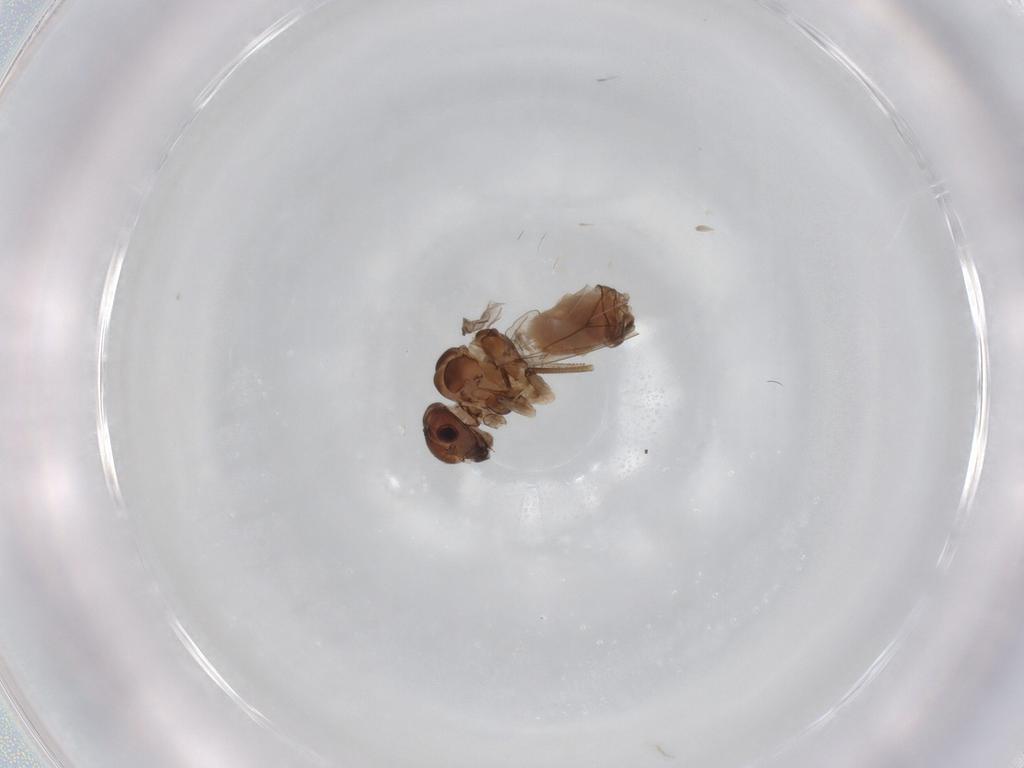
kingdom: Animalia
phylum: Arthropoda
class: Insecta
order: Psocodea
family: Peripsocidae
